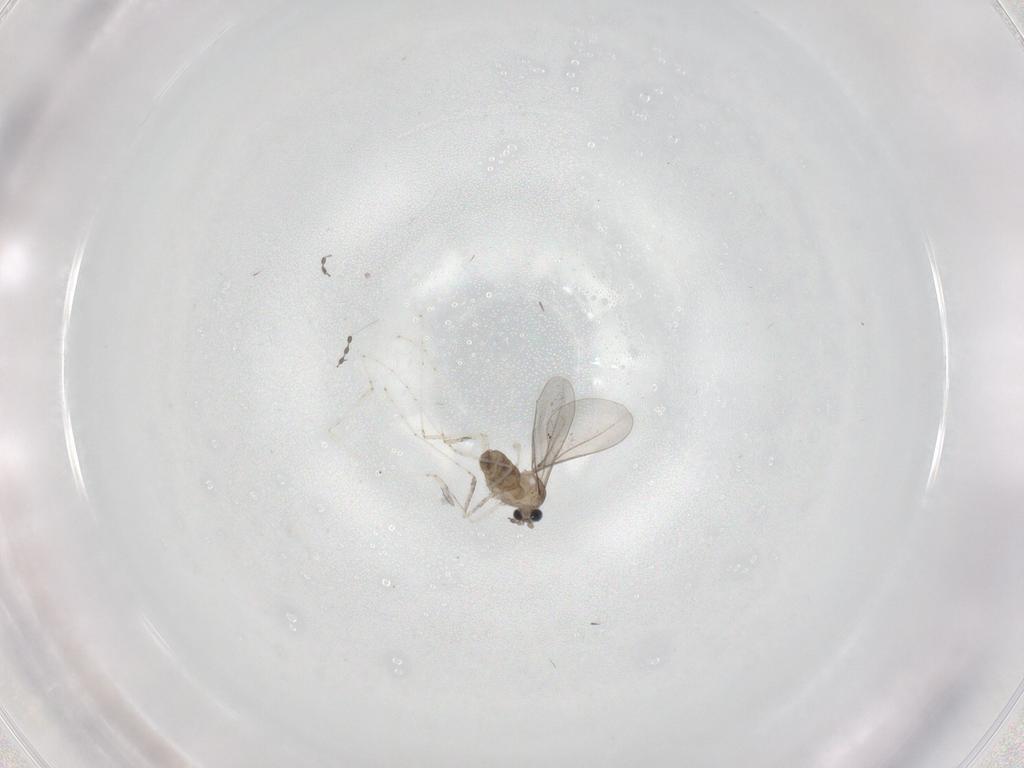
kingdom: Animalia
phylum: Arthropoda
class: Insecta
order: Diptera
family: Cecidomyiidae
